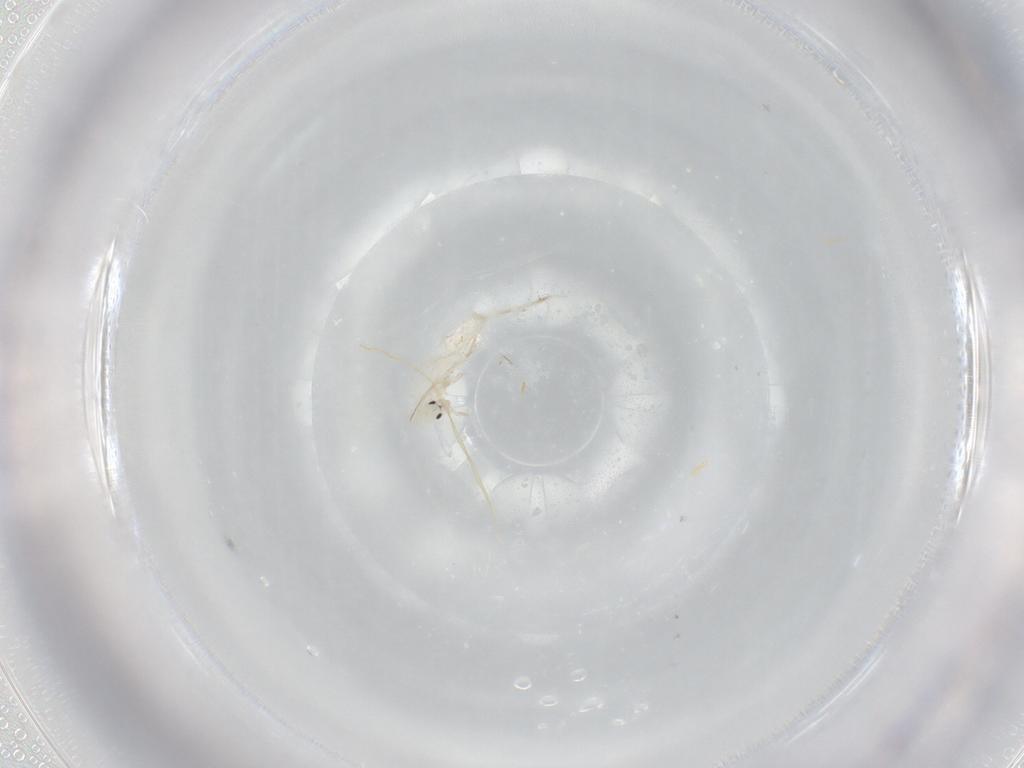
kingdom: Animalia
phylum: Arthropoda
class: Collembola
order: Entomobryomorpha
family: Entomobryidae
